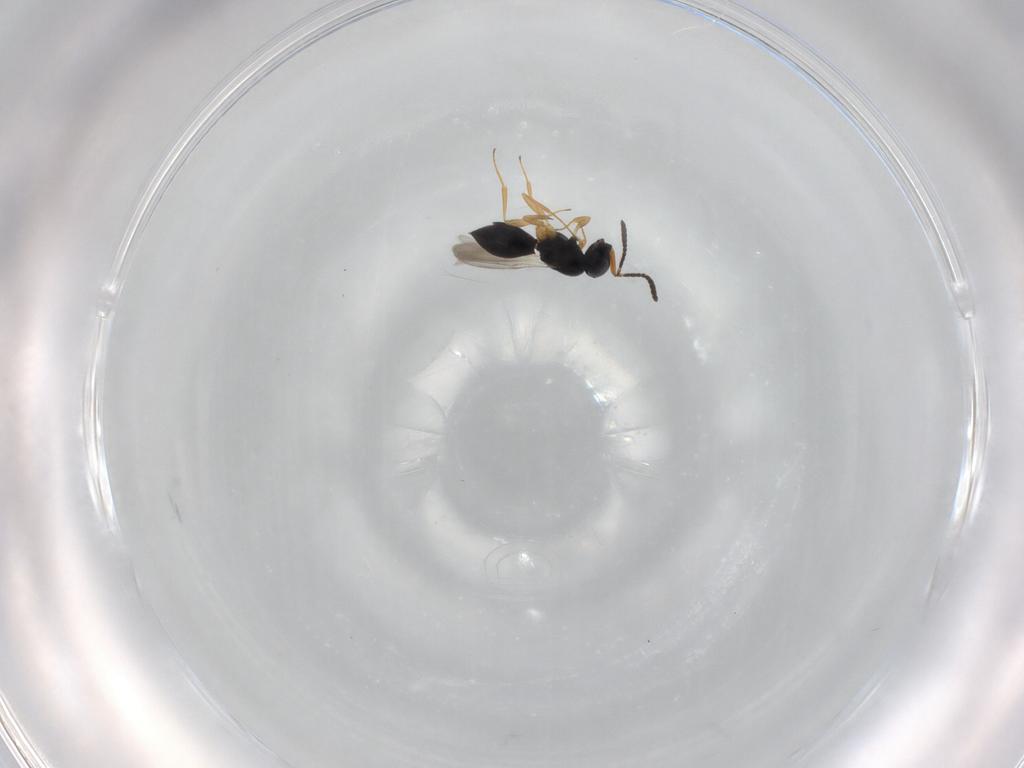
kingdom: Animalia
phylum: Arthropoda
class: Insecta
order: Hymenoptera
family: Scelionidae
